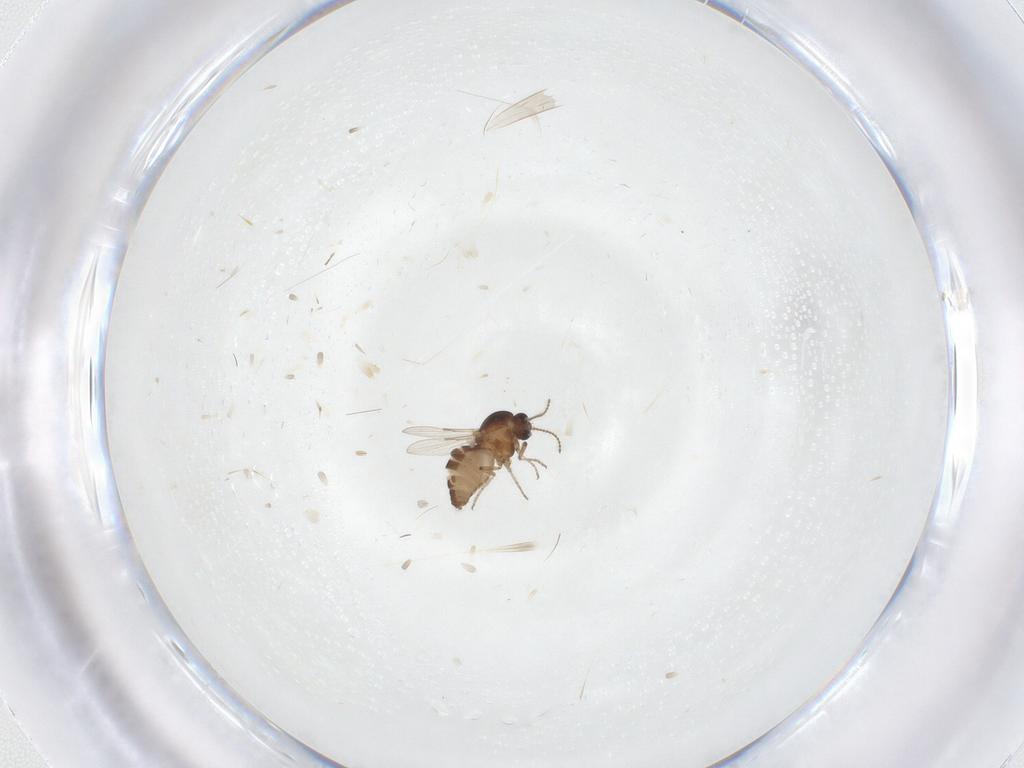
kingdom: Animalia
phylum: Arthropoda
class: Insecta
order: Diptera
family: Ceratopogonidae
